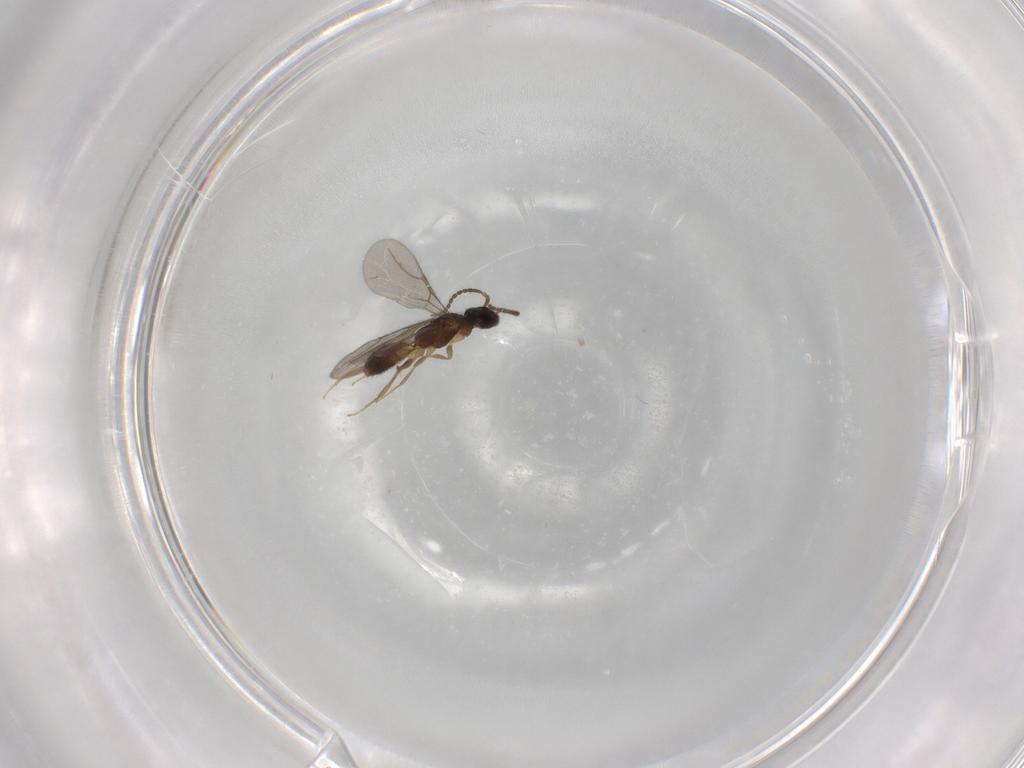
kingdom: Animalia
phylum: Arthropoda
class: Insecta
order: Hymenoptera
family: Bethylidae
